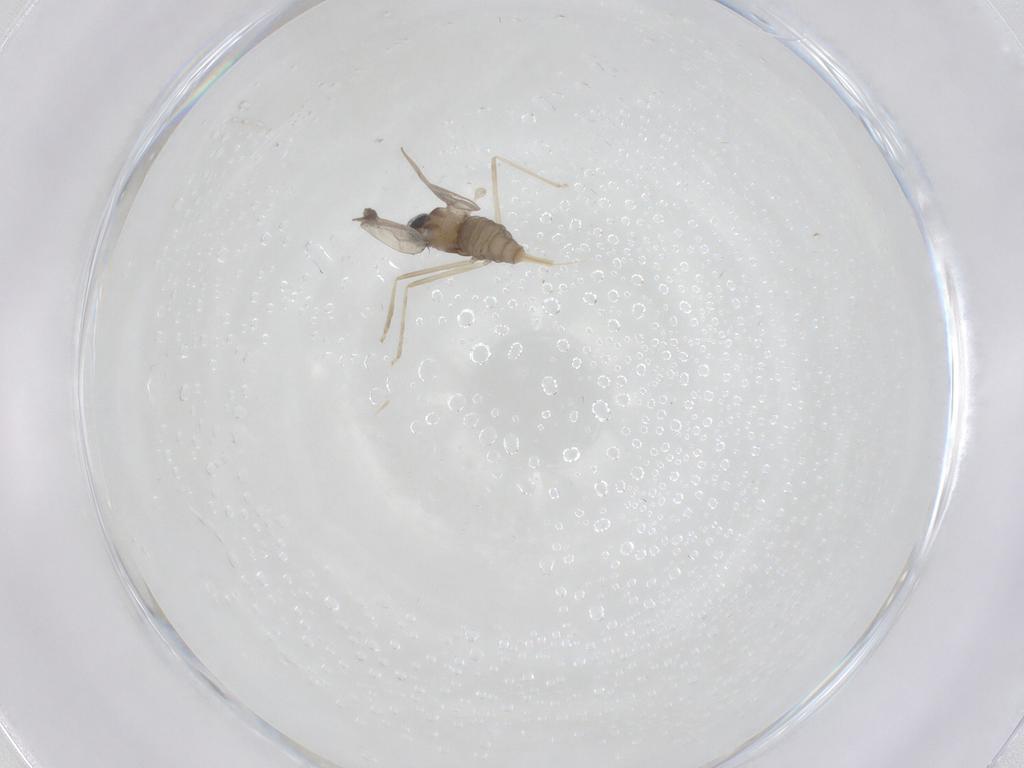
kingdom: Animalia
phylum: Arthropoda
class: Insecta
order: Diptera
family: Cecidomyiidae
